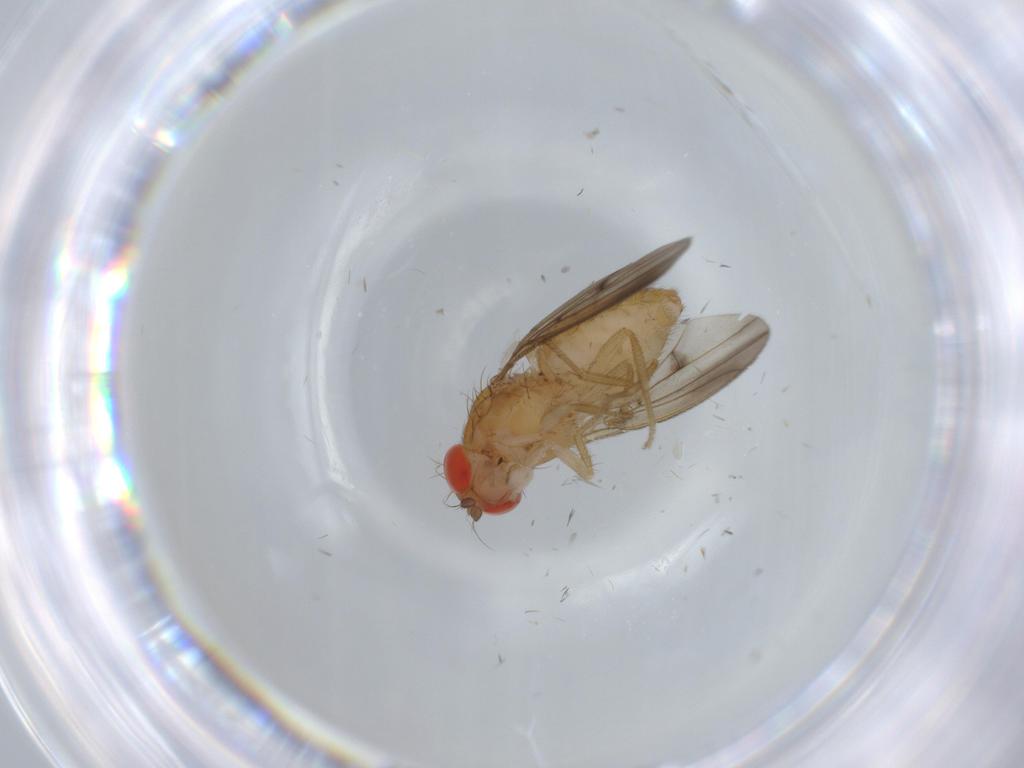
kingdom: Animalia
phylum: Arthropoda
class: Insecta
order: Diptera
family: Drosophilidae
